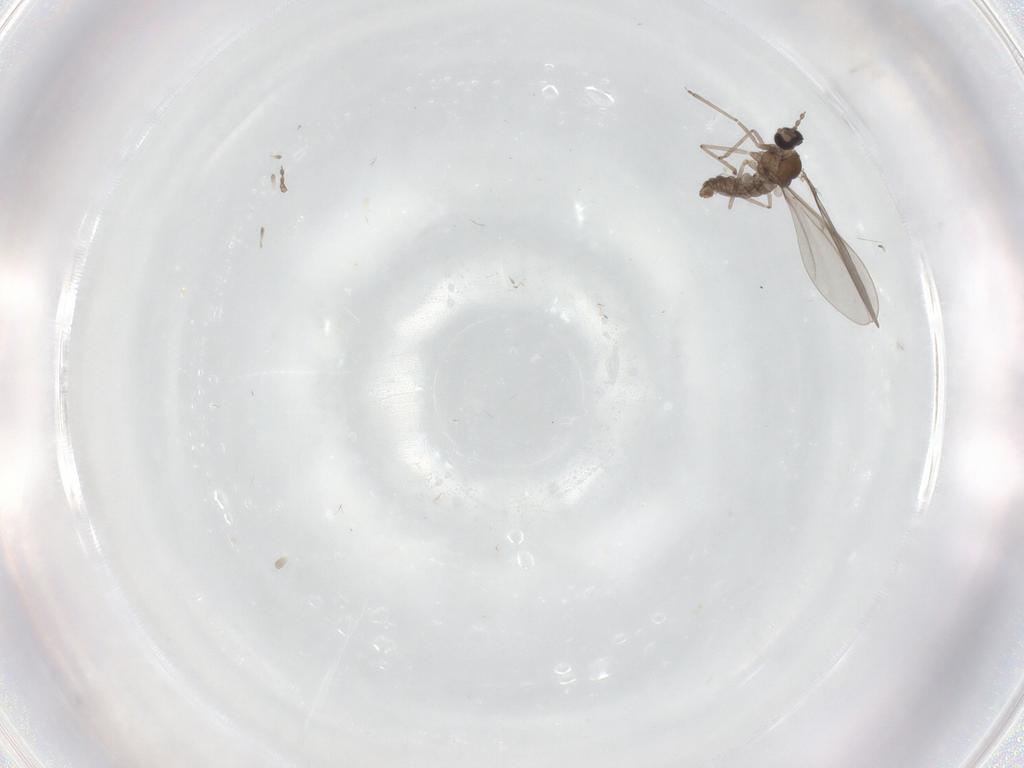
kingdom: Animalia
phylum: Arthropoda
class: Insecta
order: Diptera
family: Cecidomyiidae
